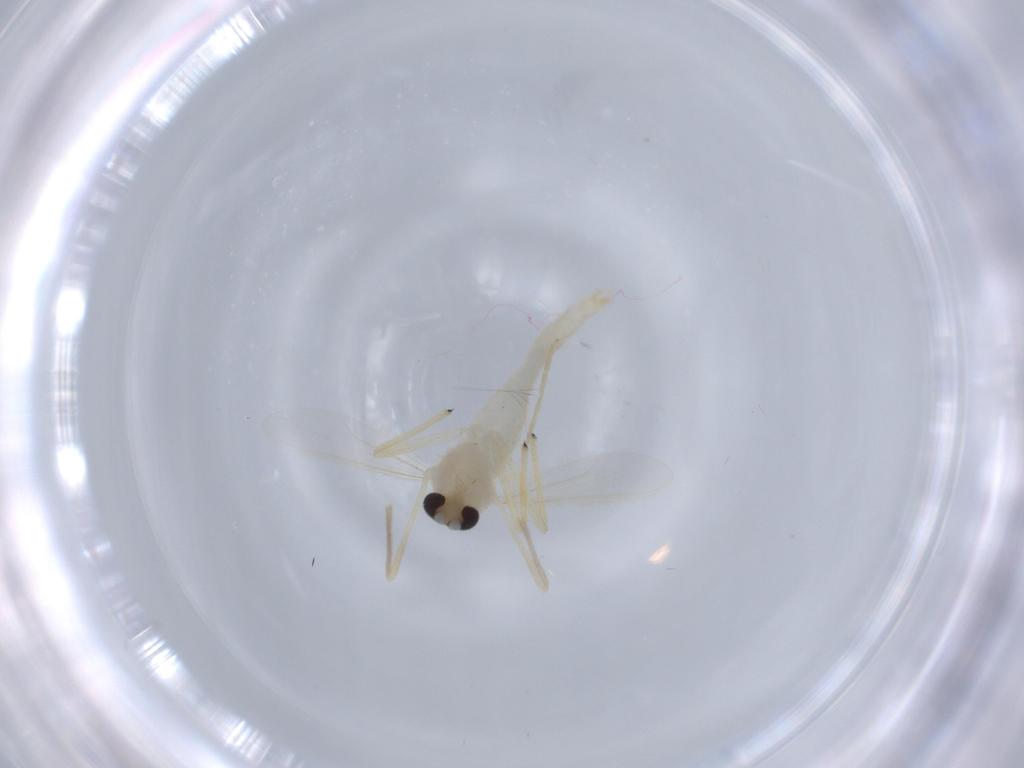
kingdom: Animalia
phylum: Arthropoda
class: Insecta
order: Diptera
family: Chironomidae
